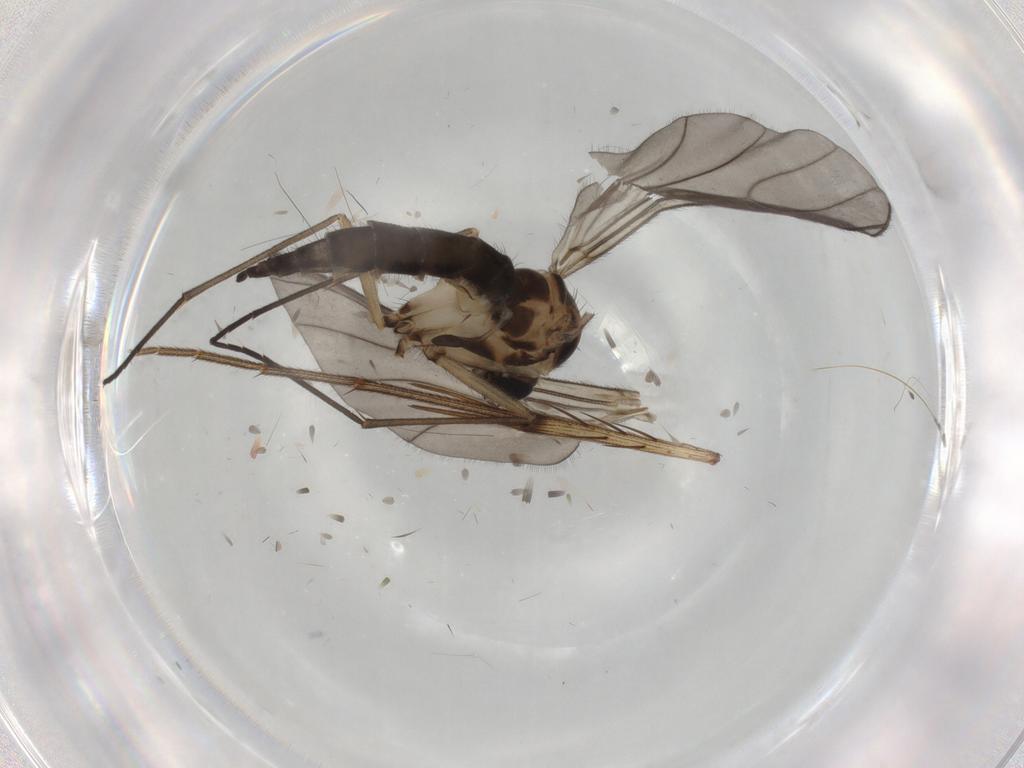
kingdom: Animalia
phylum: Arthropoda
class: Insecta
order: Diptera
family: Sciaridae
